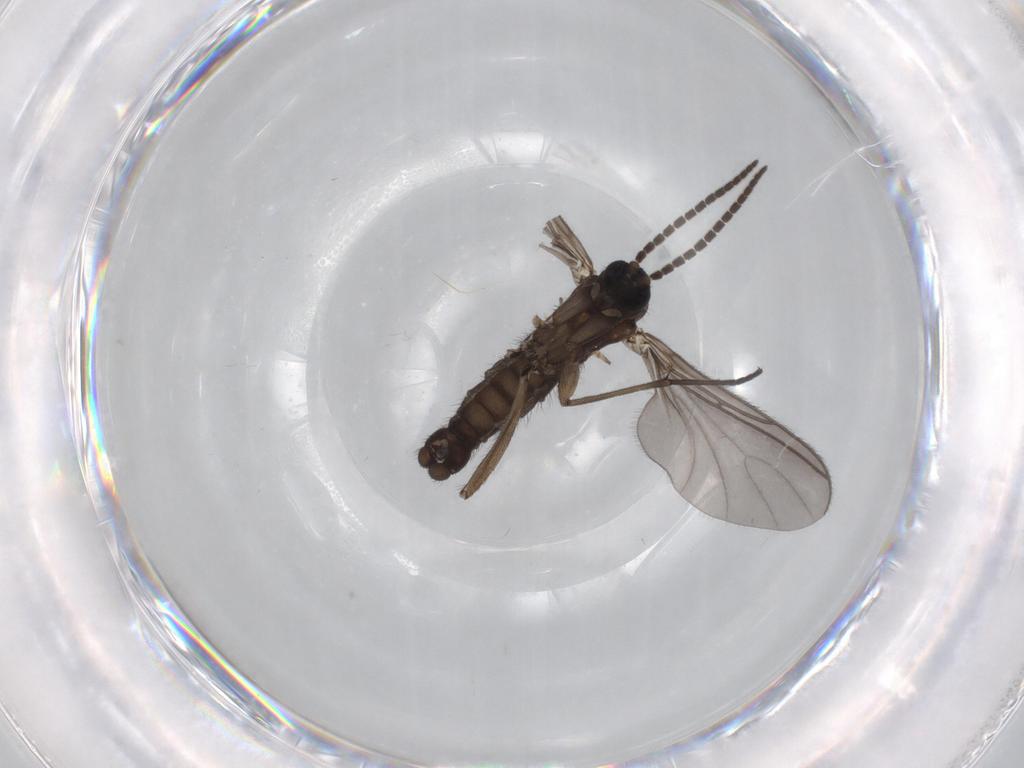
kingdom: Animalia
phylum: Arthropoda
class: Insecta
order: Diptera
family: Sciaridae
